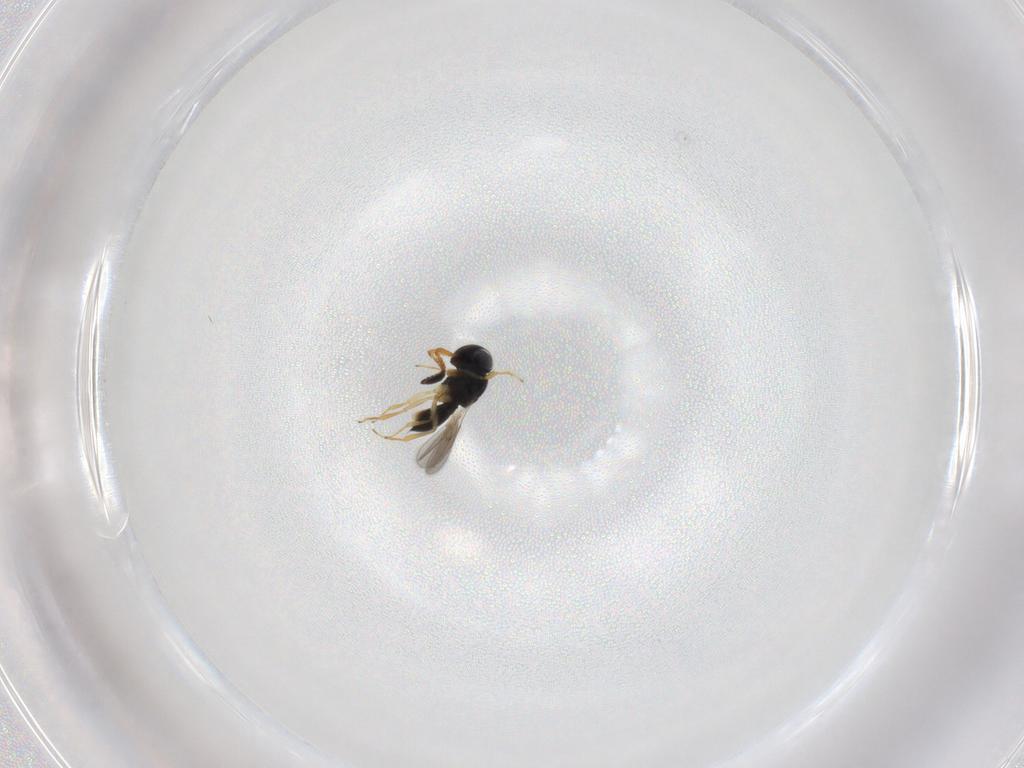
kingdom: Animalia
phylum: Arthropoda
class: Insecta
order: Hymenoptera
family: Scelionidae
